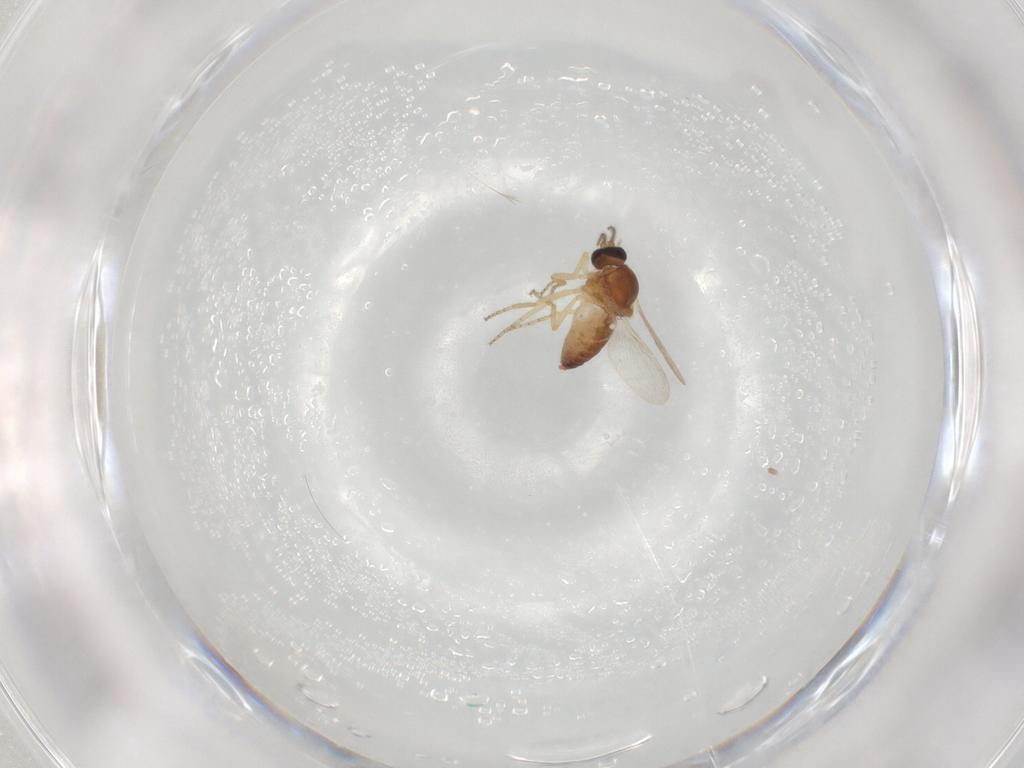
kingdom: Animalia
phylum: Arthropoda
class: Insecta
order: Diptera
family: Ceratopogonidae
